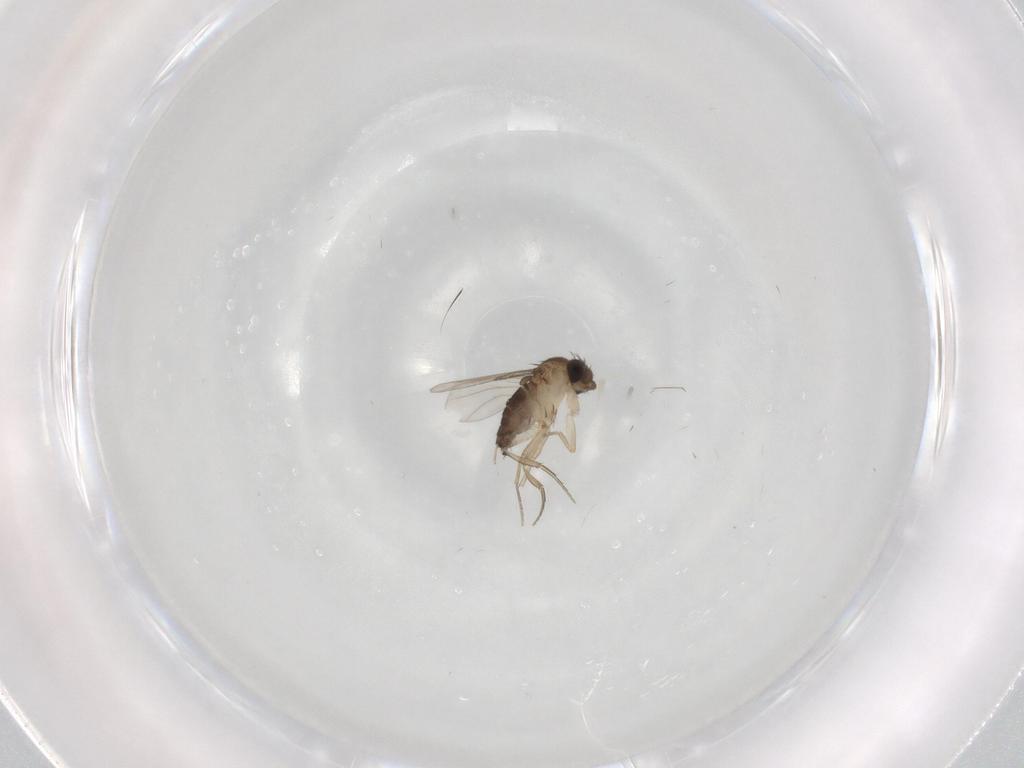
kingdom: Animalia
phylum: Arthropoda
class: Insecta
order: Diptera
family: Phoridae
